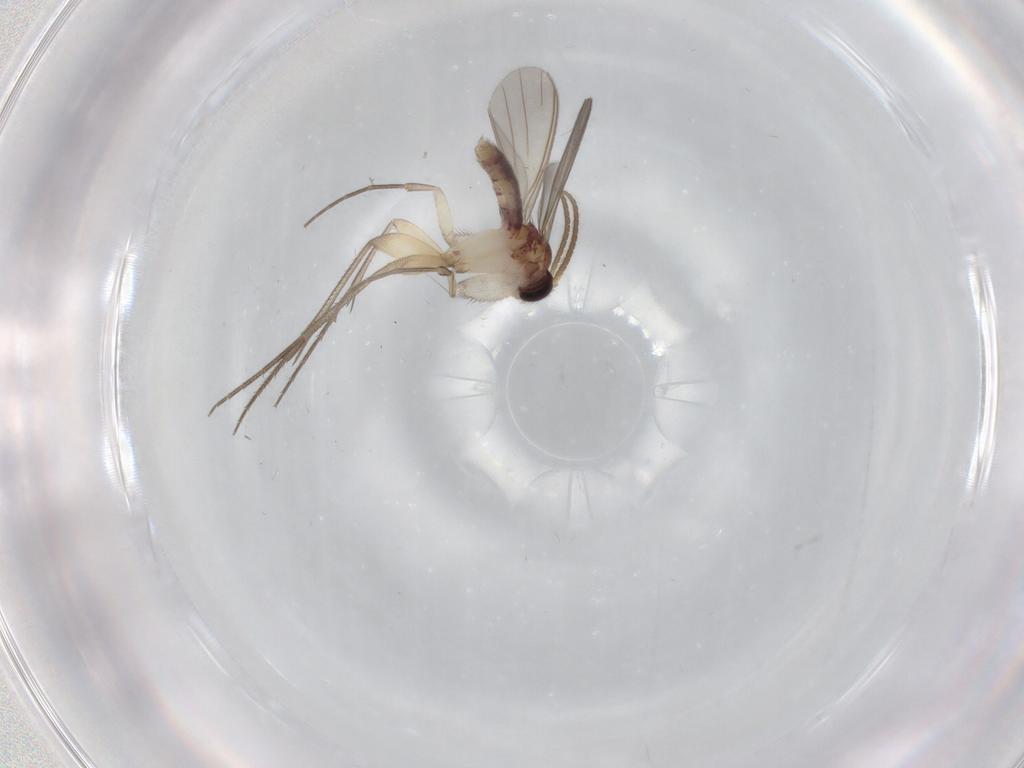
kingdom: Animalia
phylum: Arthropoda
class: Insecta
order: Diptera
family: Mycetophilidae
